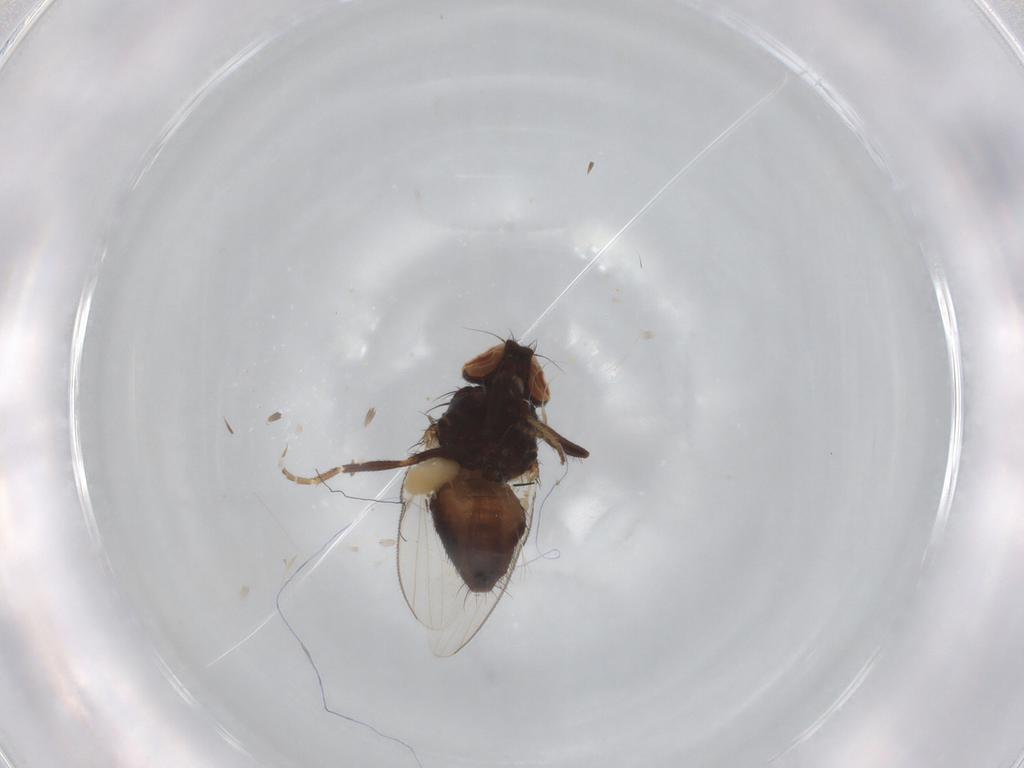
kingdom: Animalia
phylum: Arthropoda
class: Insecta
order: Diptera
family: Milichiidae
